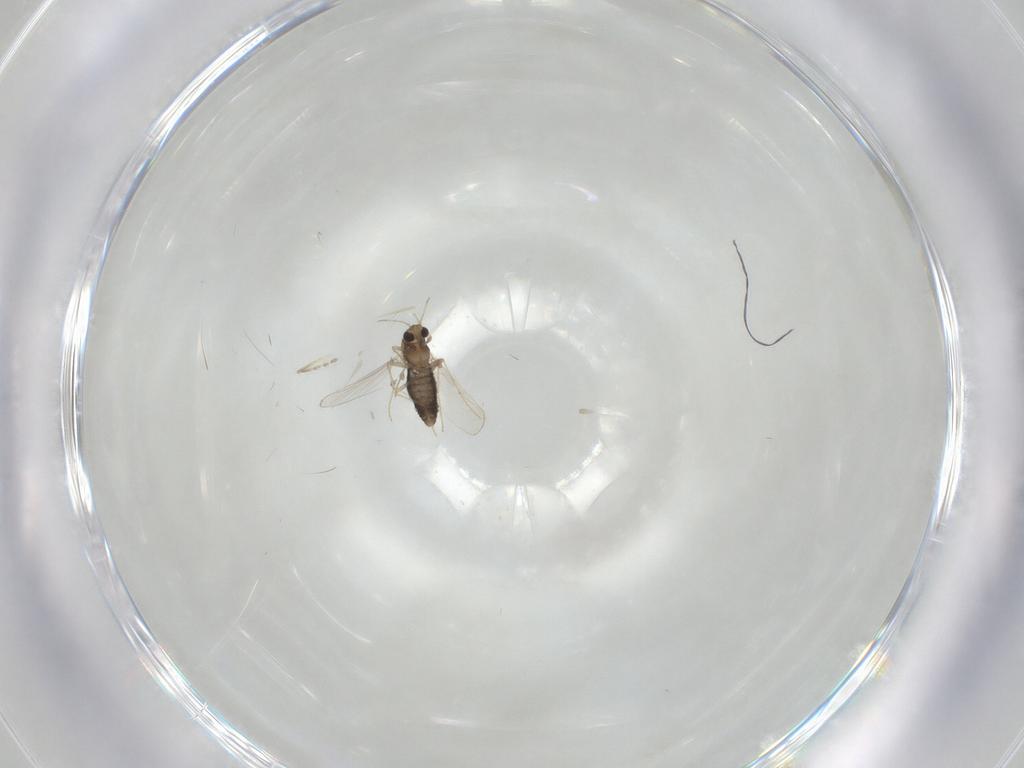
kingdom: Animalia
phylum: Arthropoda
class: Insecta
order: Diptera
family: Chironomidae
